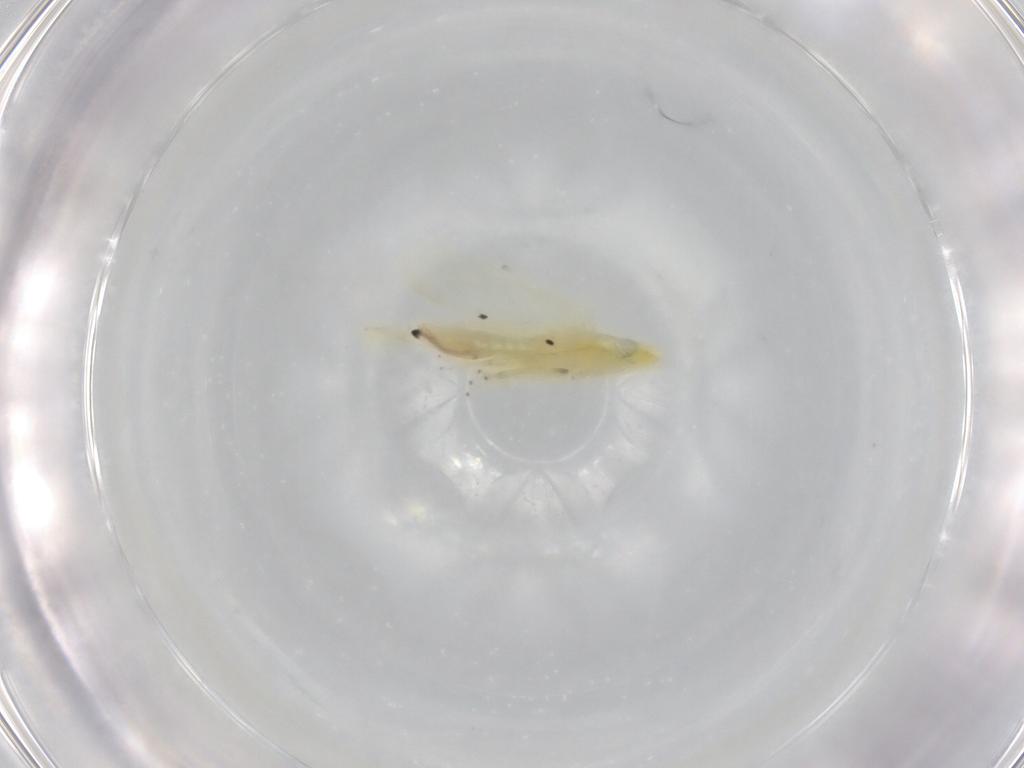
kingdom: Animalia
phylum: Arthropoda
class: Insecta
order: Hemiptera
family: Cicadellidae
